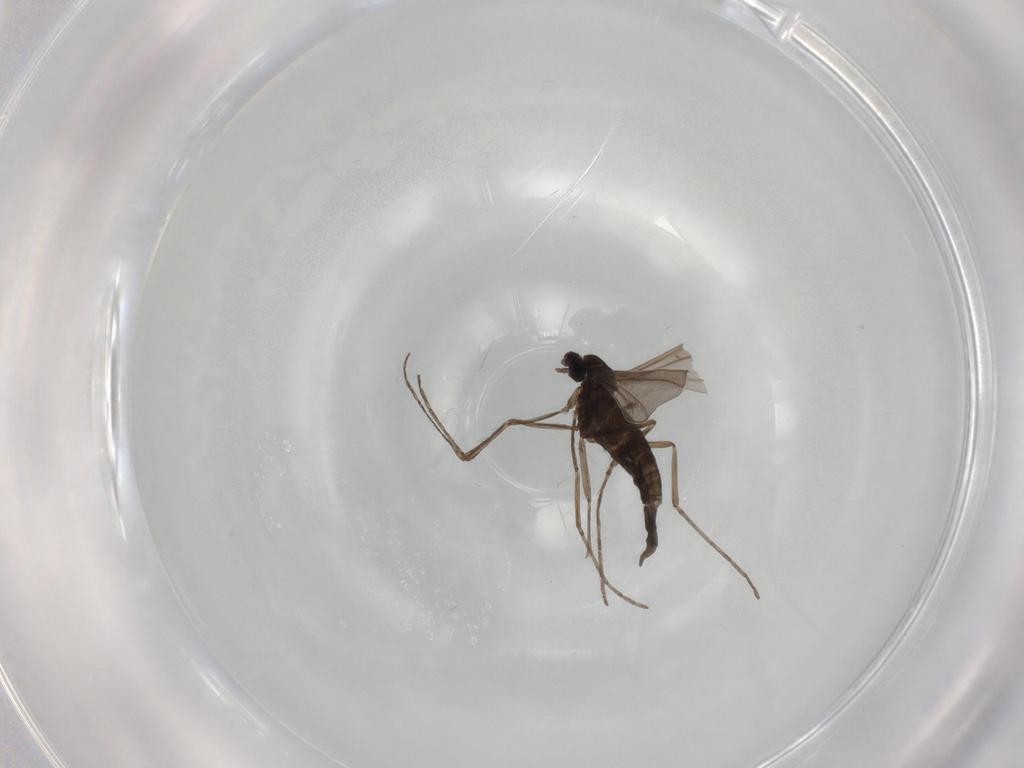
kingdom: Animalia
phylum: Arthropoda
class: Insecta
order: Diptera
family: Cecidomyiidae
